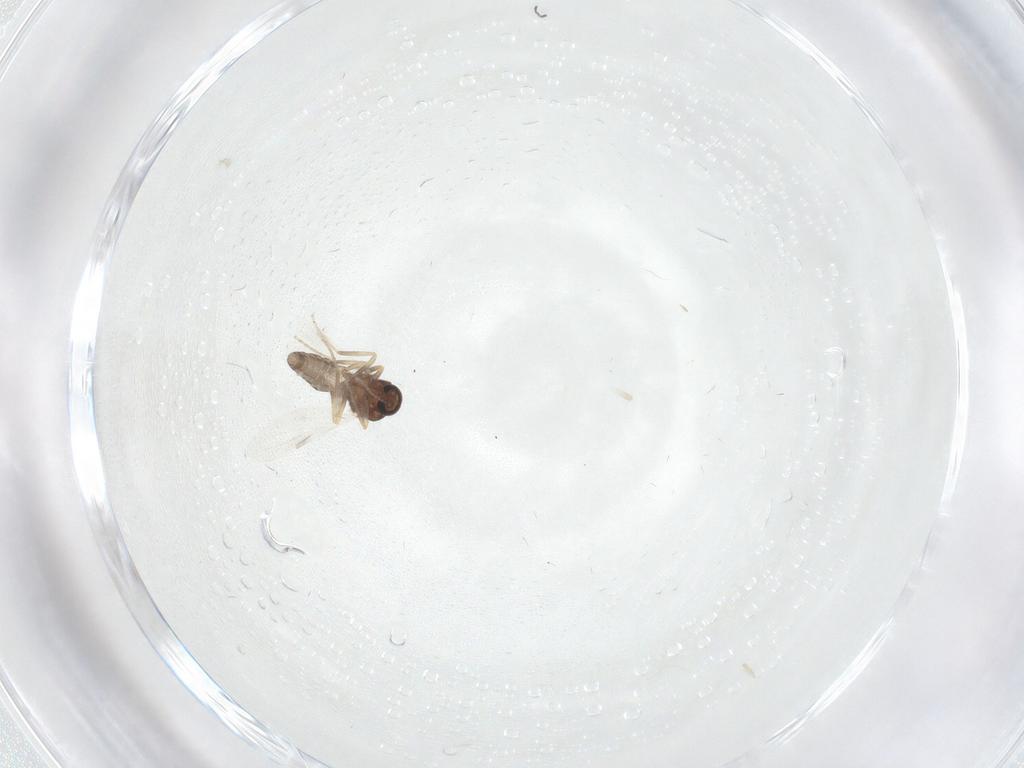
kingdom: Animalia
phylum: Arthropoda
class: Insecta
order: Diptera
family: Ceratopogonidae
